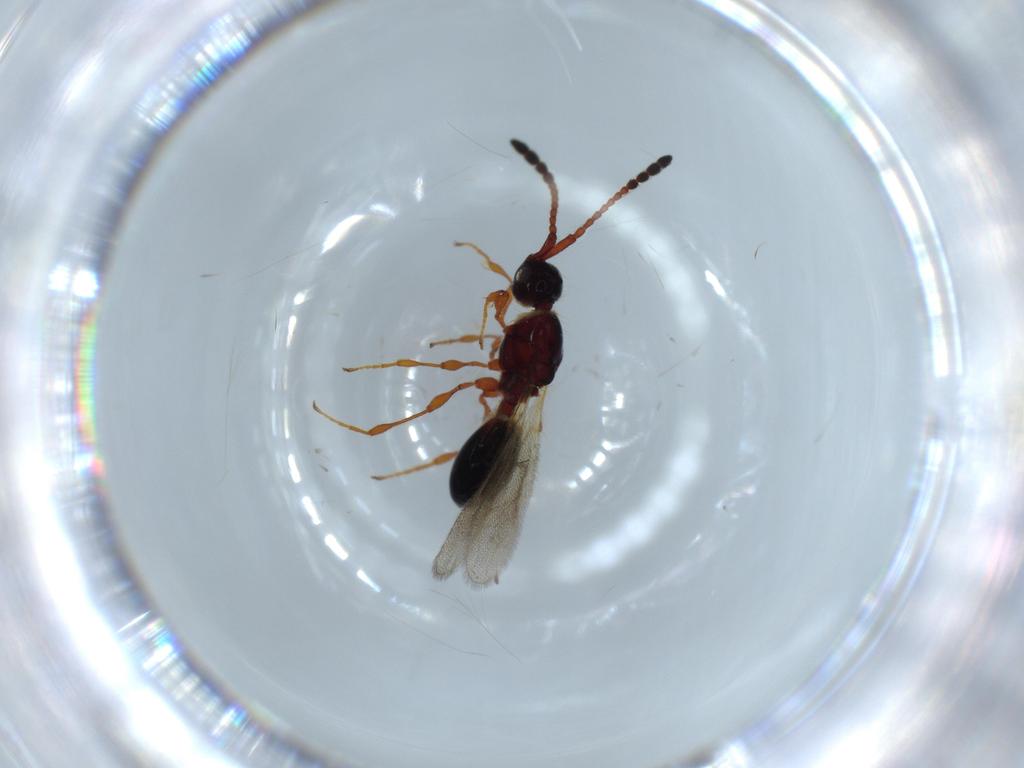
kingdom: Animalia
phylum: Arthropoda
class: Insecta
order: Hymenoptera
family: Diapriidae
